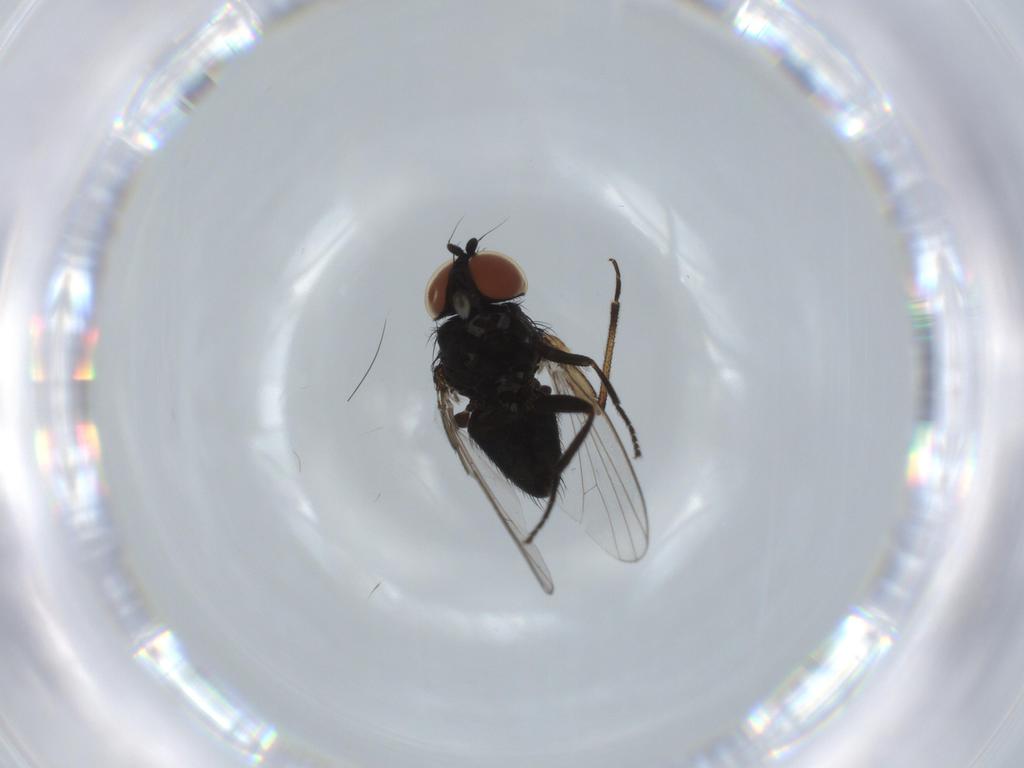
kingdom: Animalia
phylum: Arthropoda
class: Insecta
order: Diptera
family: Milichiidae
